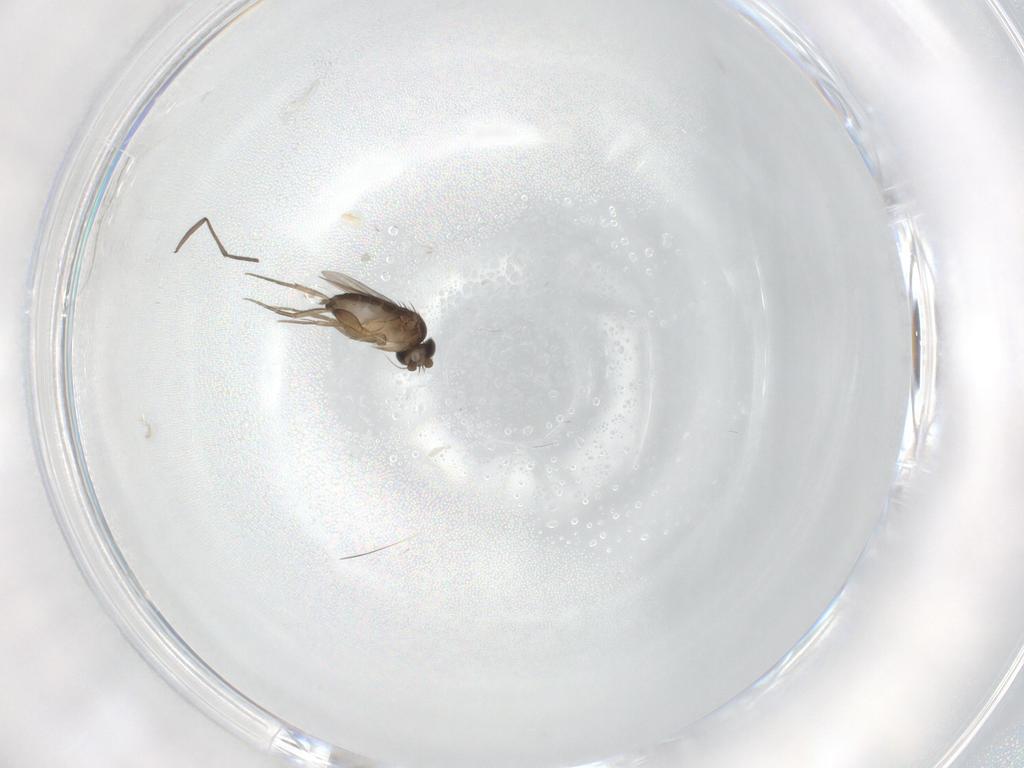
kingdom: Animalia
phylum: Arthropoda
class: Insecta
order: Diptera
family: Phoridae
